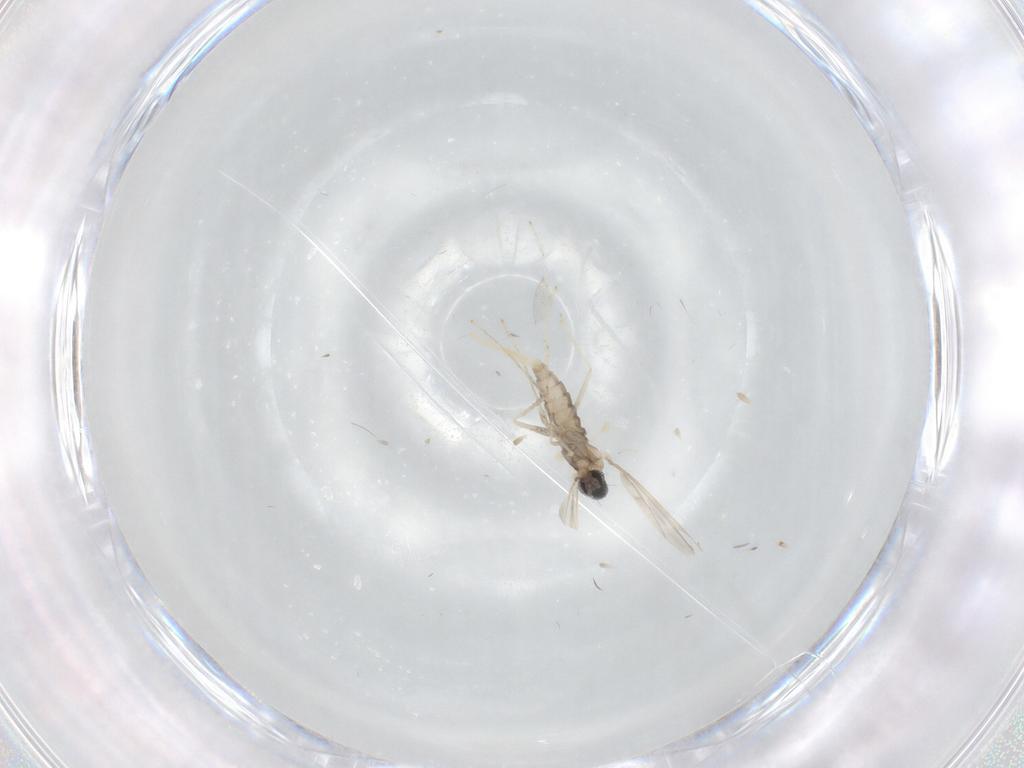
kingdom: Animalia
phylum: Arthropoda
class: Insecta
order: Diptera
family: Cecidomyiidae
